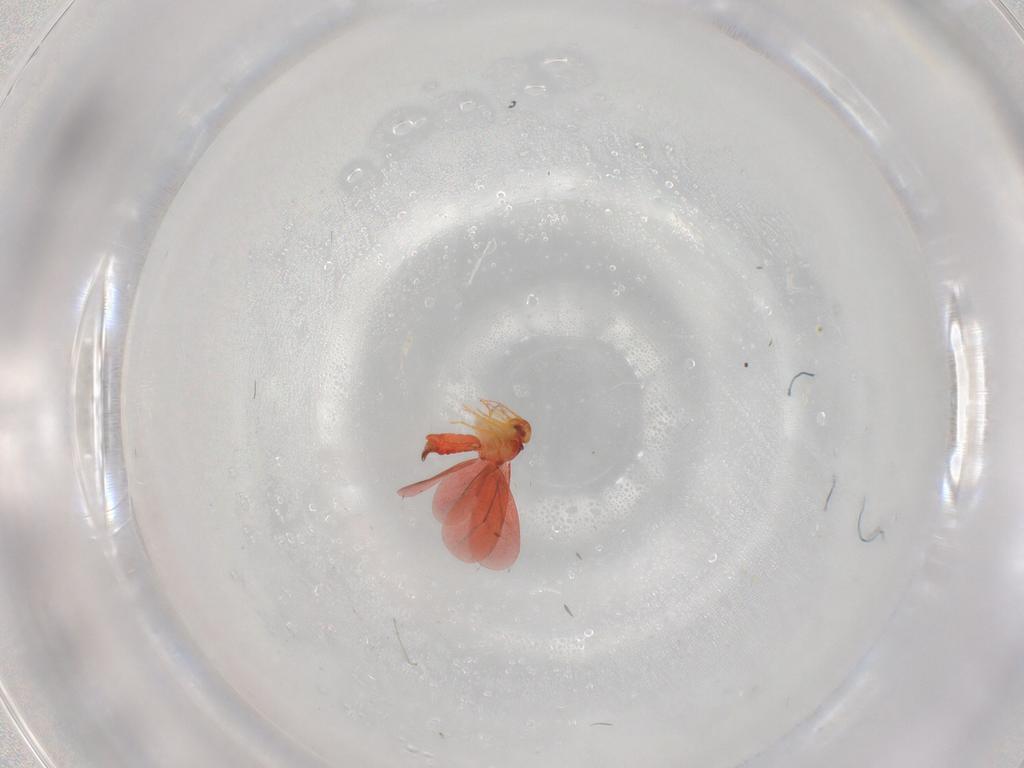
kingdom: Animalia
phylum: Arthropoda
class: Insecta
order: Hemiptera
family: Aleyrodidae
